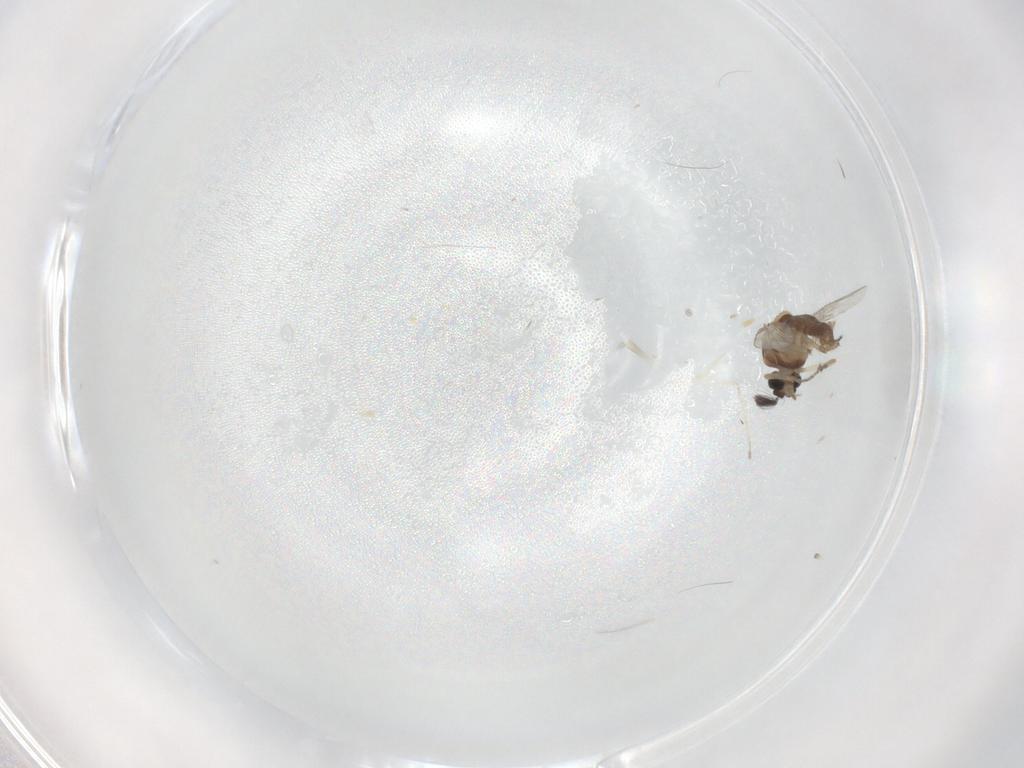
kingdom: Animalia
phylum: Arthropoda
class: Insecta
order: Diptera
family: Ceratopogonidae
